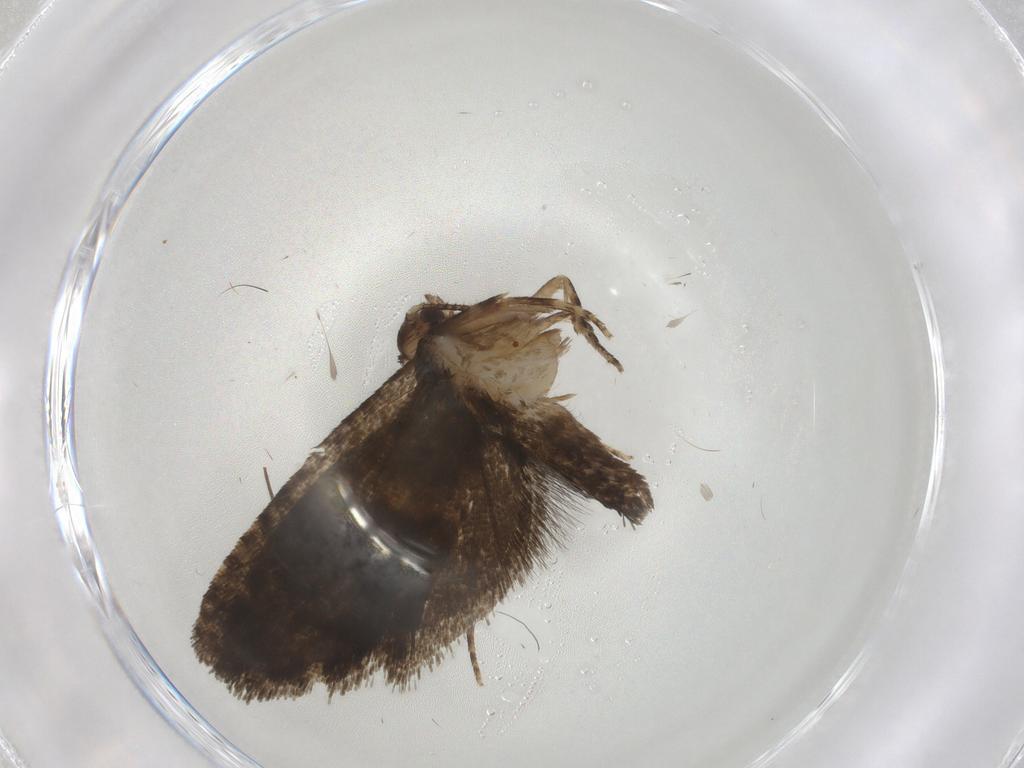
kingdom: Animalia
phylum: Arthropoda
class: Insecta
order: Lepidoptera
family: Tortricidae
